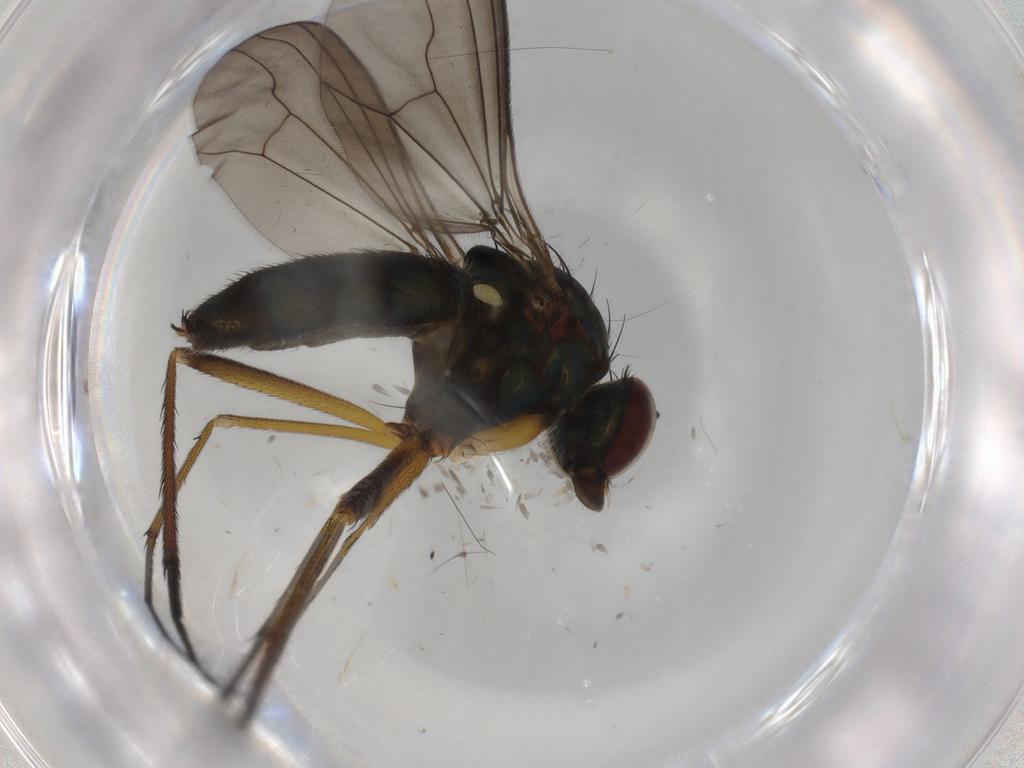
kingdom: Animalia
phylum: Arthropoda
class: Insecta
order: Diptera
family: Dolichopodidae
